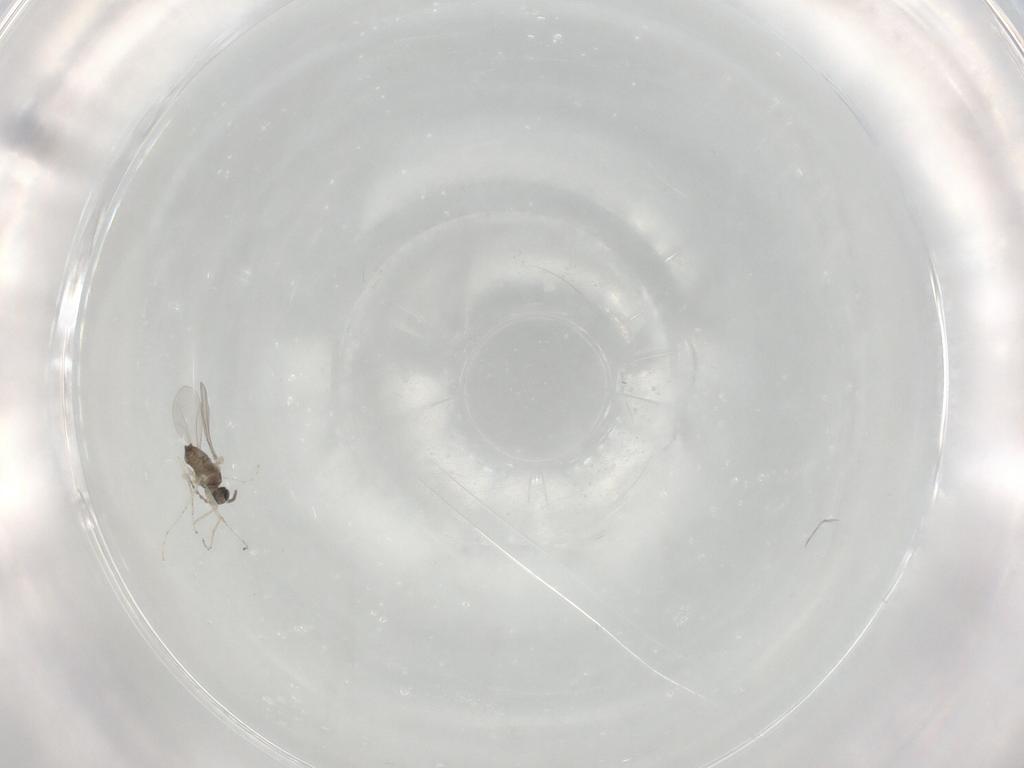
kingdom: Animalia
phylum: Arthropoda
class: Insecta
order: Diptera
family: Cecidomyiidae
